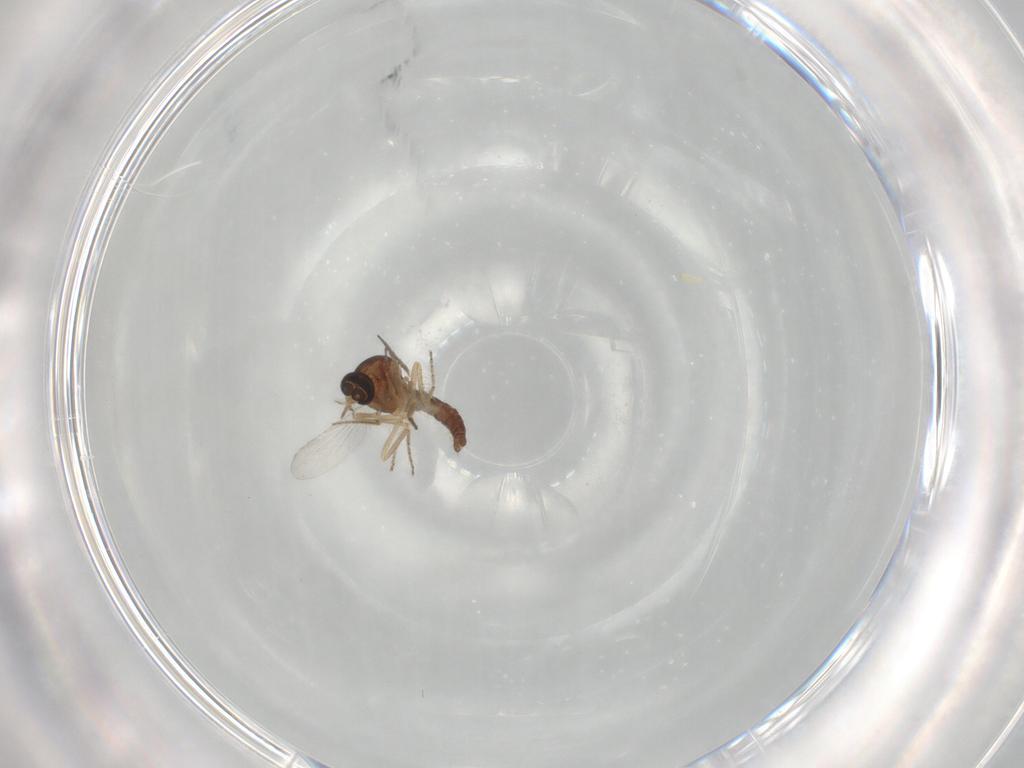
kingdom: Animalia
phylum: Arthropoda
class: Insecta
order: Diptera
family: Ceratopogonidae
